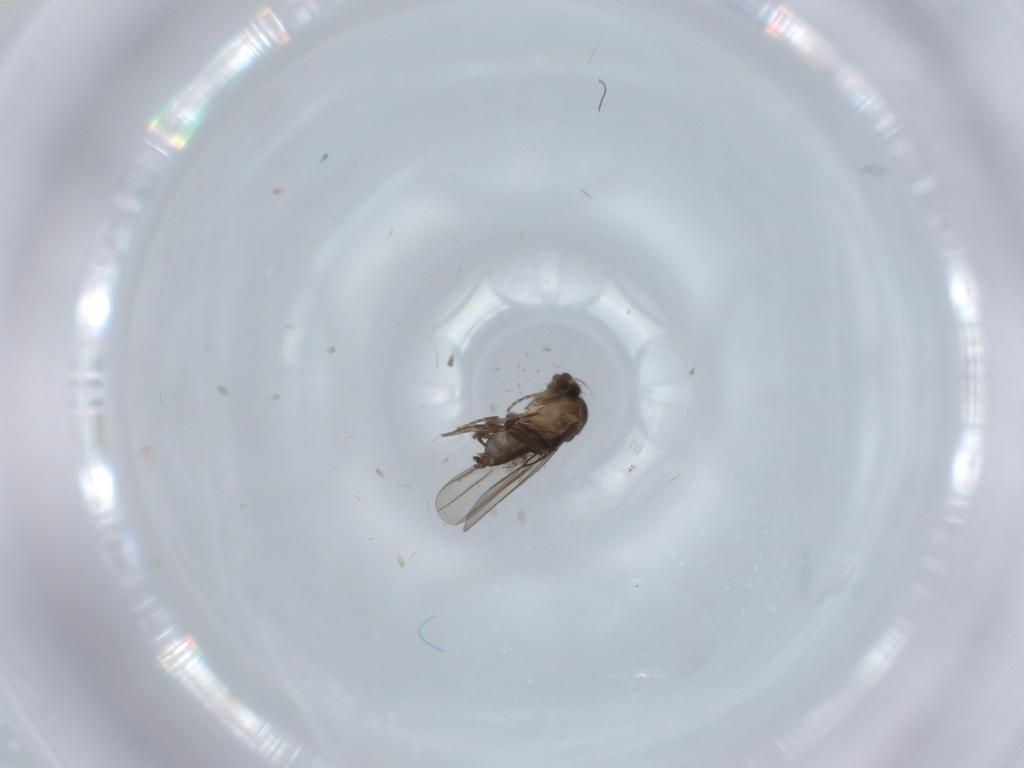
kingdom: Animalia
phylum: Arthropoda
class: Insecta
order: Diptera
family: Phoridae
